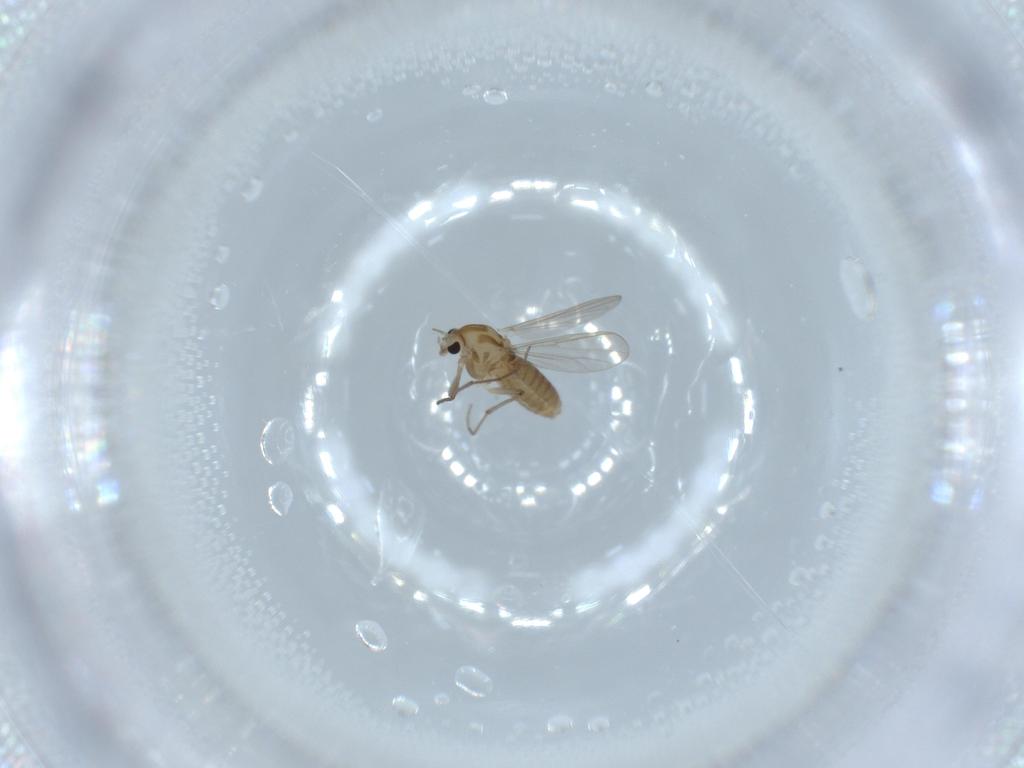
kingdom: Animalia
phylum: Arthropoda
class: Insecta
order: Diptera
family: Chironomidae
